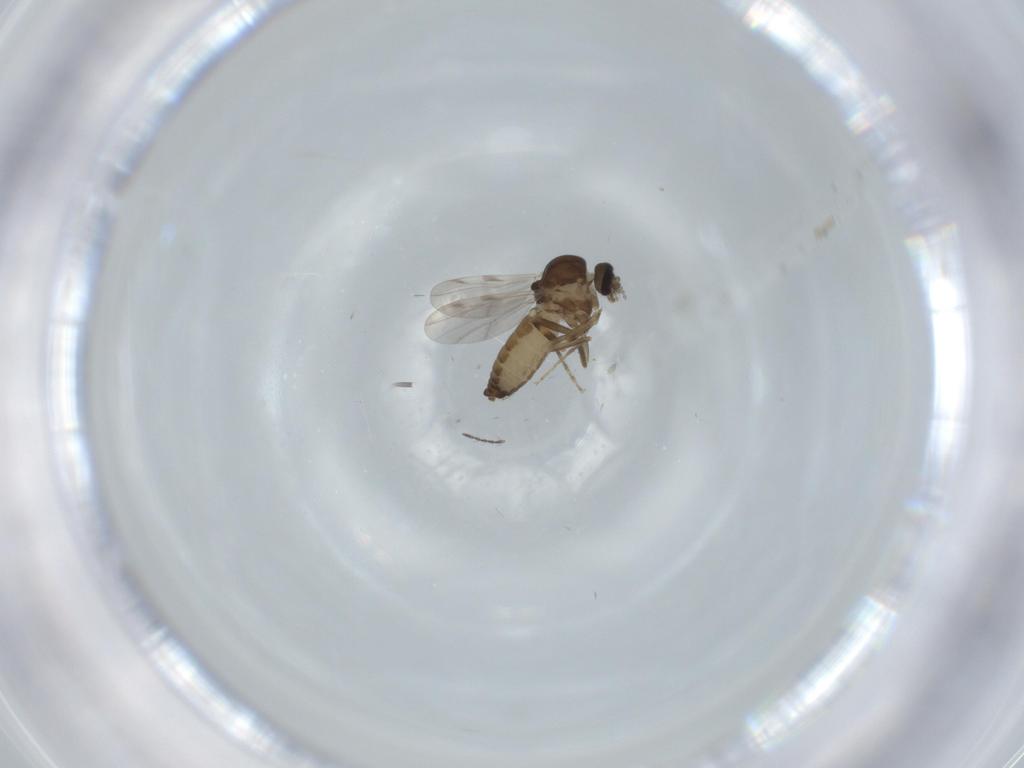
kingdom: Animalia
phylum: Arthropoda
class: Insecta
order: Diptera
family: Ceratopogonidae
